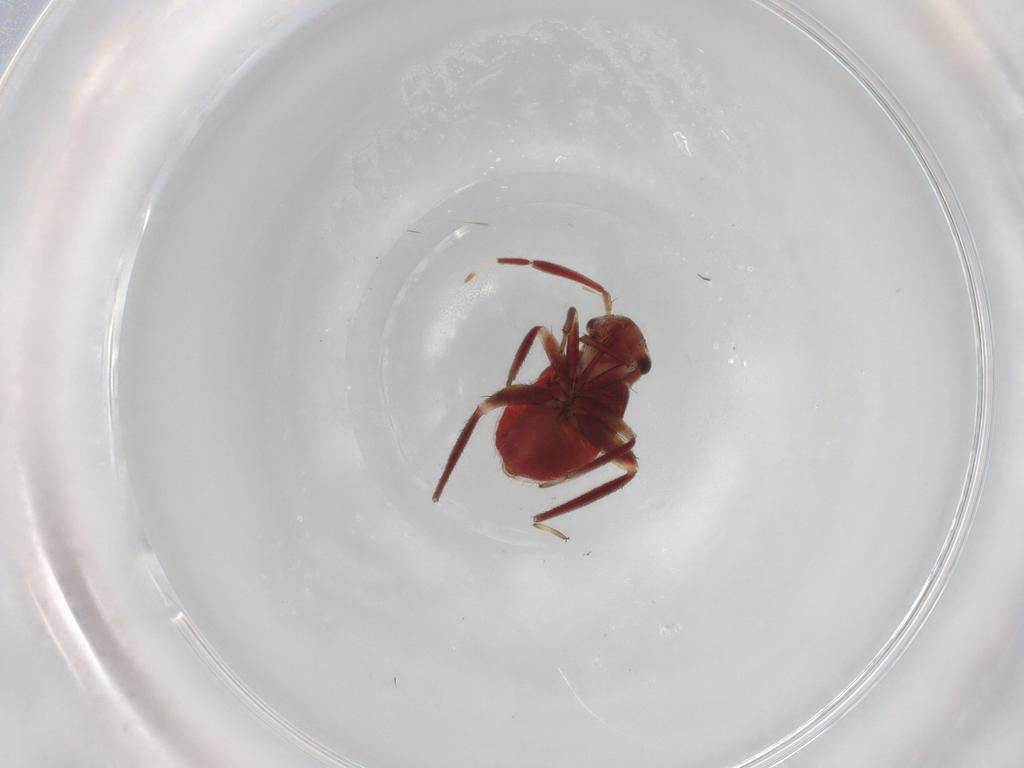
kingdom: Animalia
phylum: Arthropoda
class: Insecta
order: Hemiptera
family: Miridae
